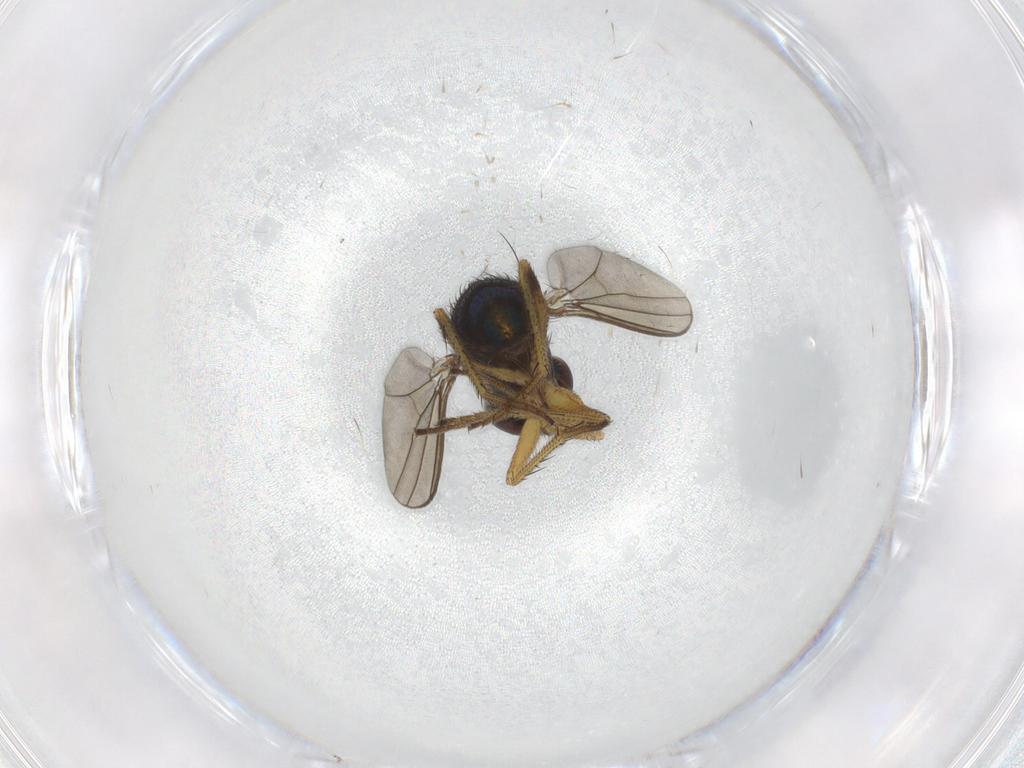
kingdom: Animalia
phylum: Arthropoda
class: Insecta
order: Diptera
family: Dolichopodidae
